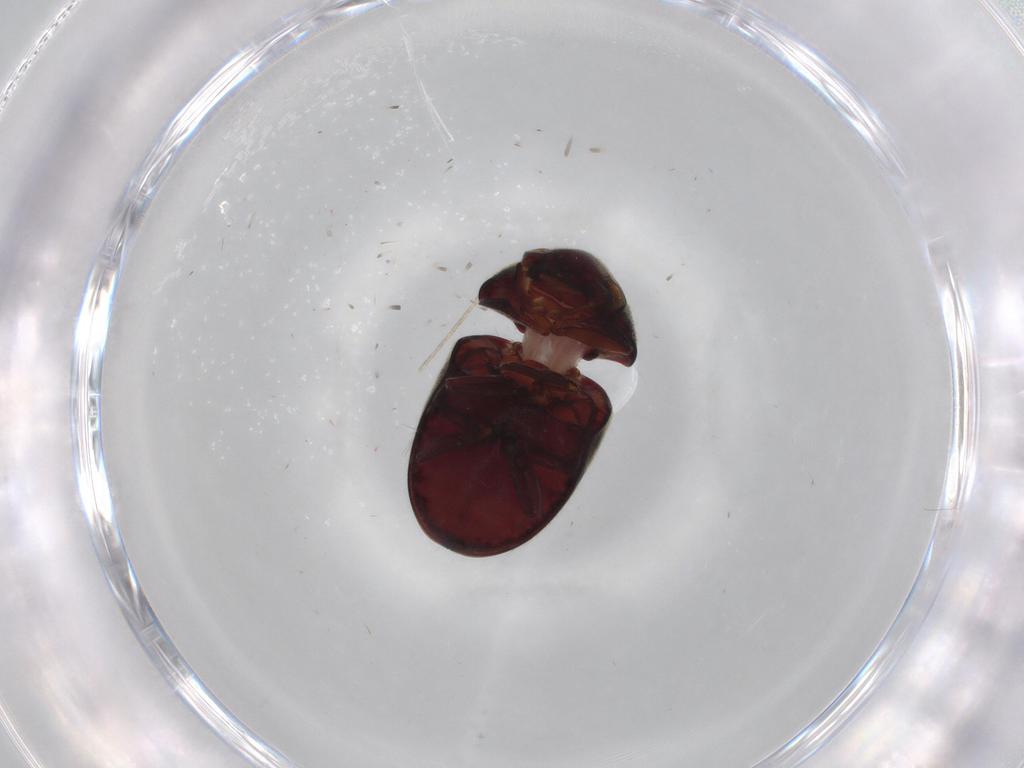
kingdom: Animalia
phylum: Arthropoda
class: Insecta
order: Coleoptera
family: Ptinidae
